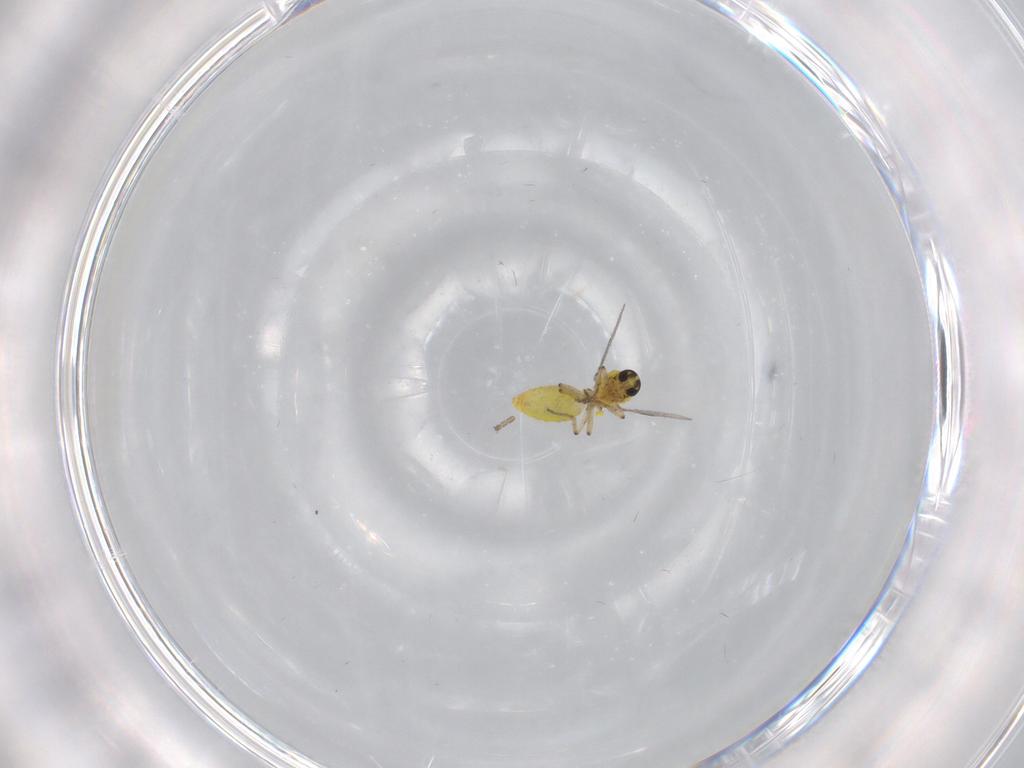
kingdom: Animalia
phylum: Arthropoda
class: Insecta
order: Diptera
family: Ceratopogonidae
